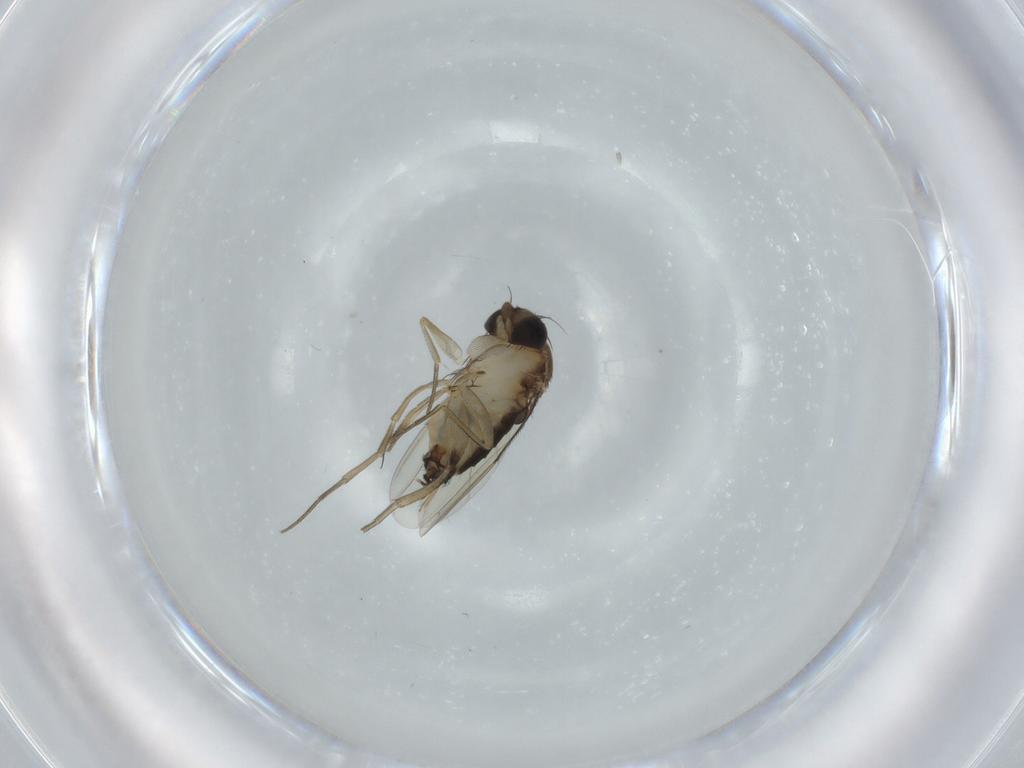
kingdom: Animalia
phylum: Arthropoda
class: Insecta
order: Diptera
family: Phoridae
